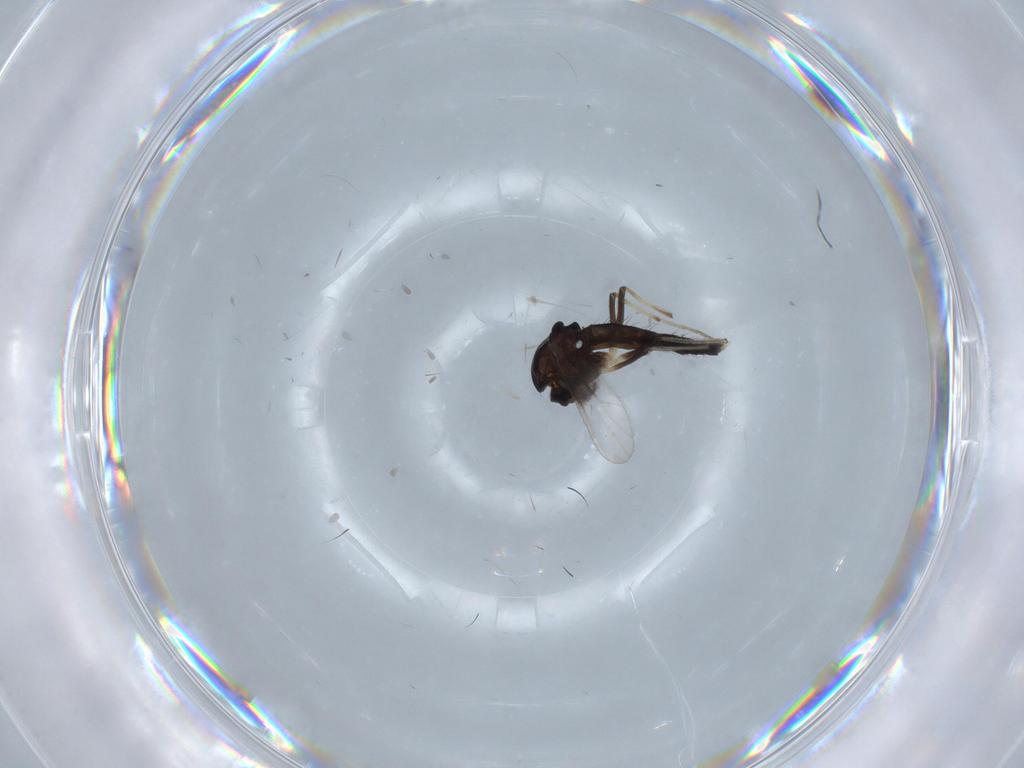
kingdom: Animalia
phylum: Arthropoda
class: Insecta
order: Diptera
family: Chironomidae
